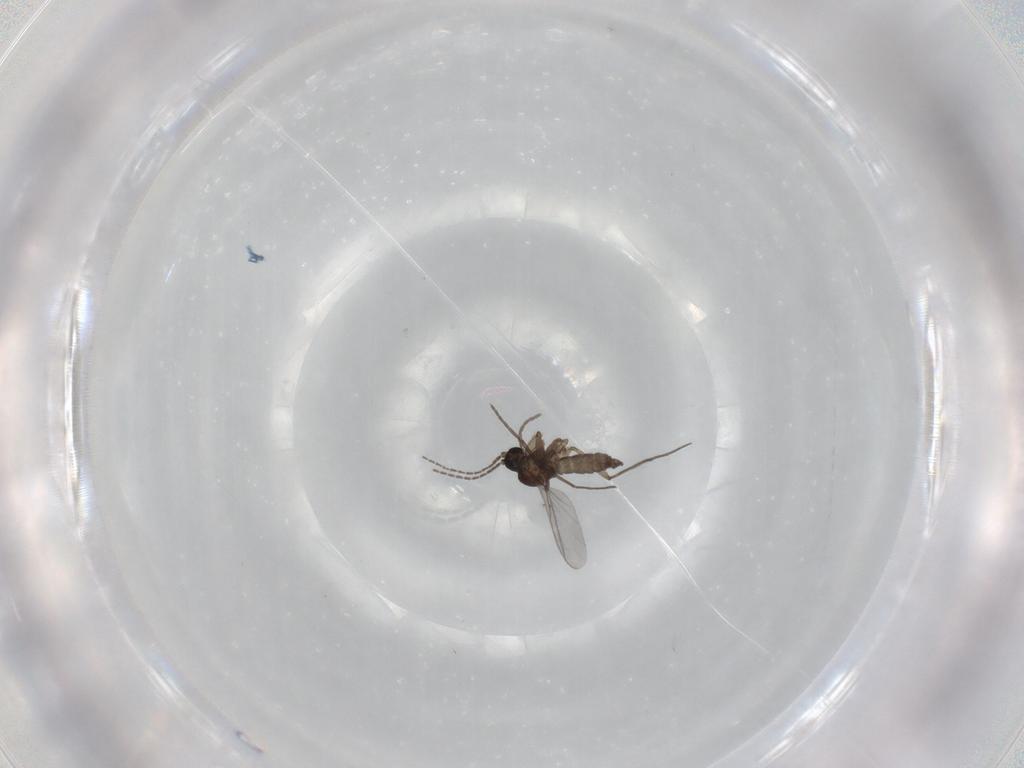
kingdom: Animalia
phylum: Arthropoda
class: Insecta
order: Diptera
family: Sciaridae
